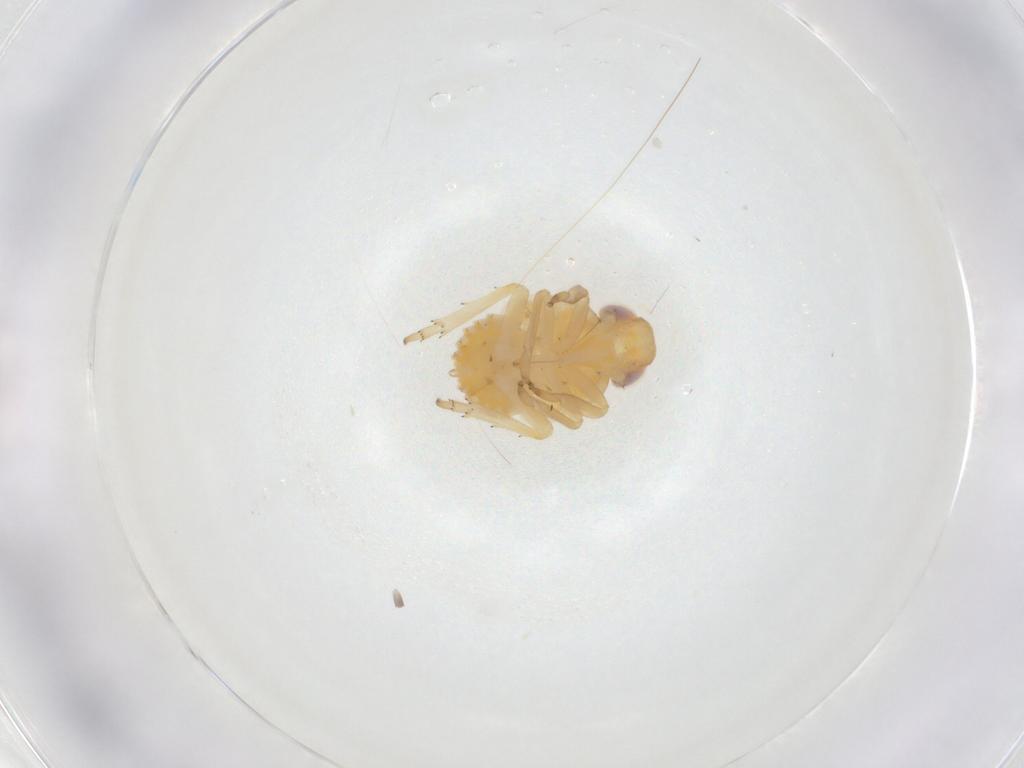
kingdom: Animalia
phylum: Arthropoda
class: Insecta
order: Hemiptera
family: Fulgoroidea_incertae_sedis
